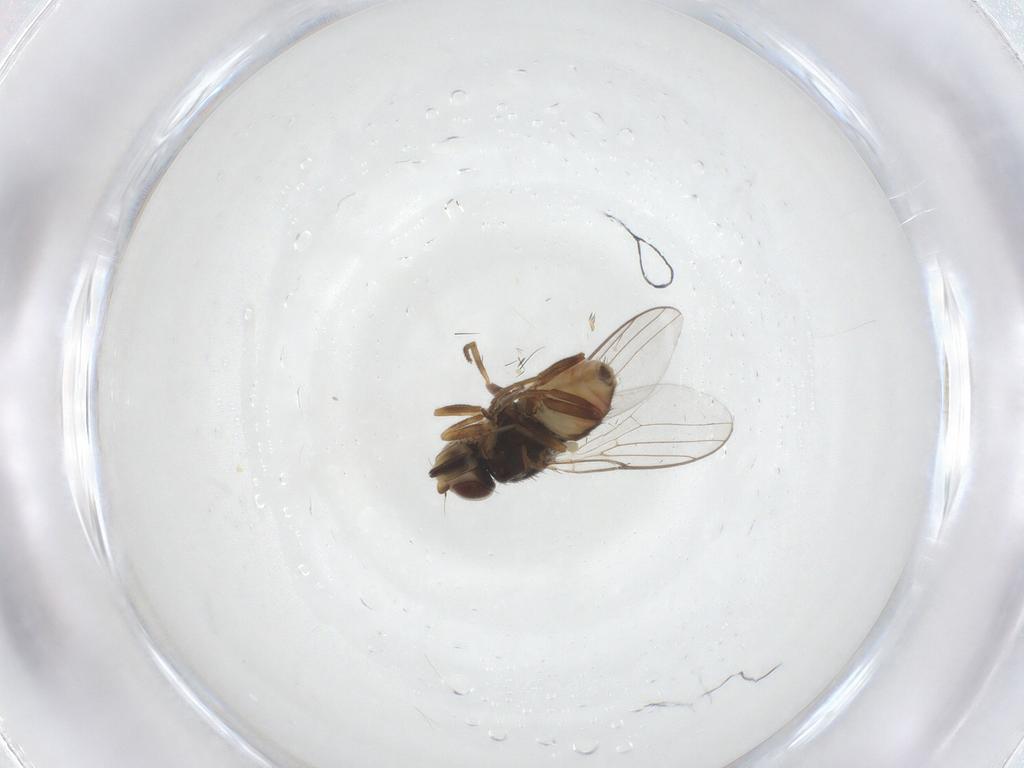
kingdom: Animalia
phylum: Arthropoda
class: Insecta
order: Diptera
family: Chloropidae
